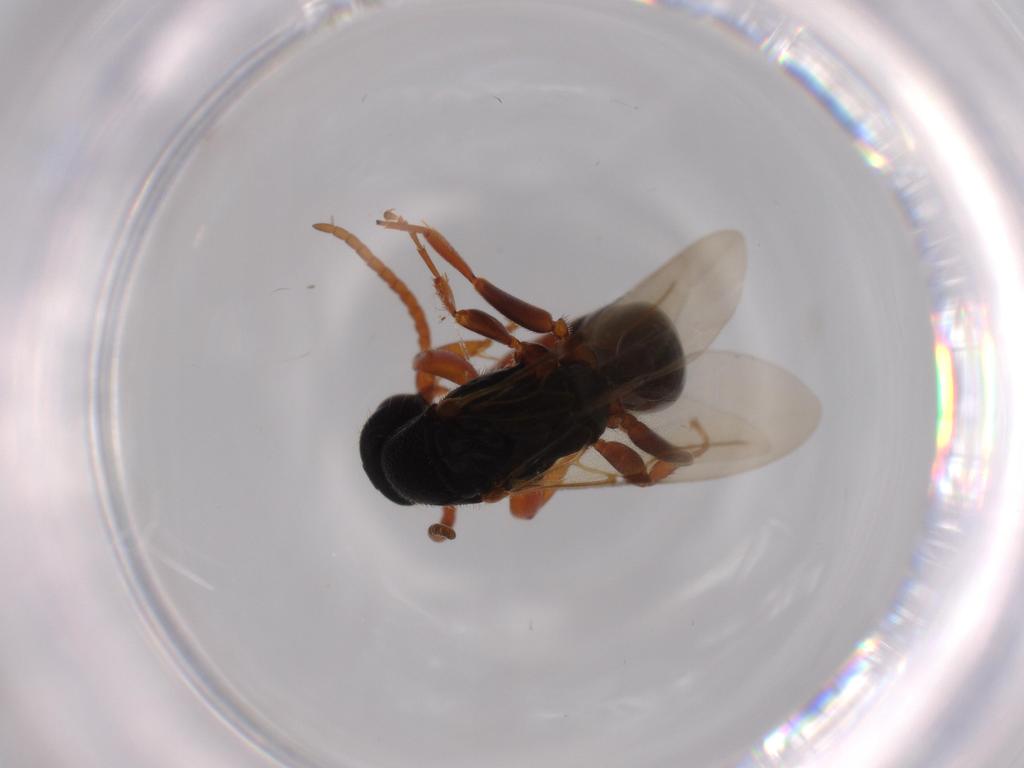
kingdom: Animalia
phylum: Arthropoda
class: Insecta
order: Hymenoptera
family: Bethylidae
